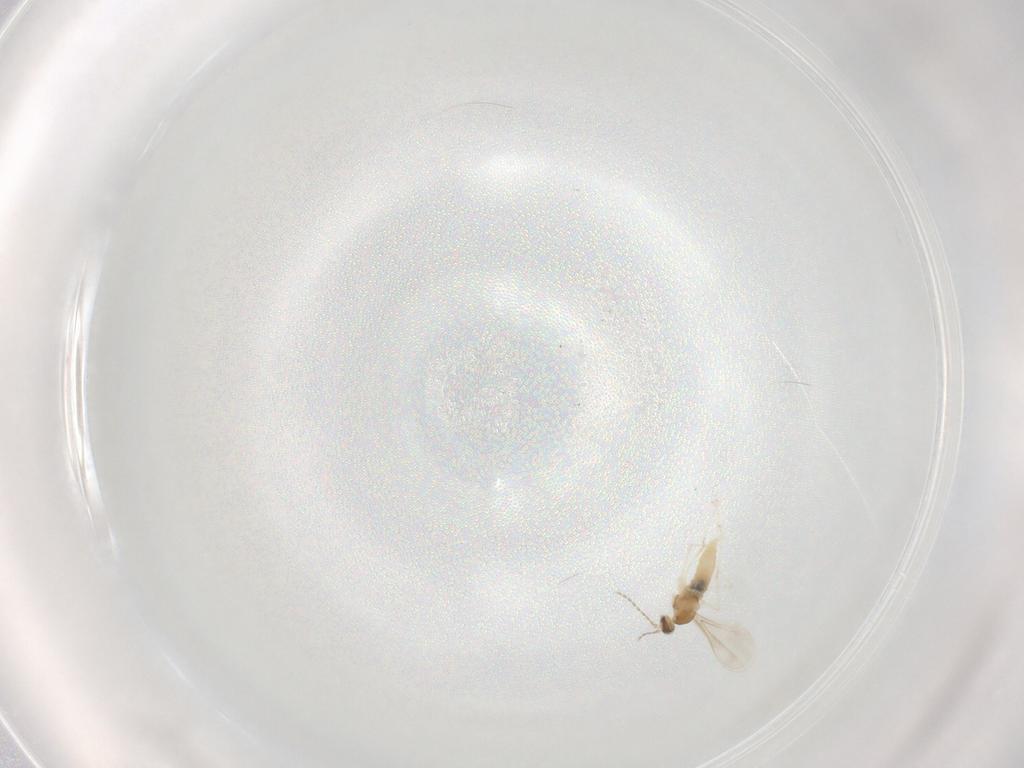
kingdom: Animalia
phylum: Arthropoda
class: Insecta
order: Diptera
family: Cecidomyiidae
